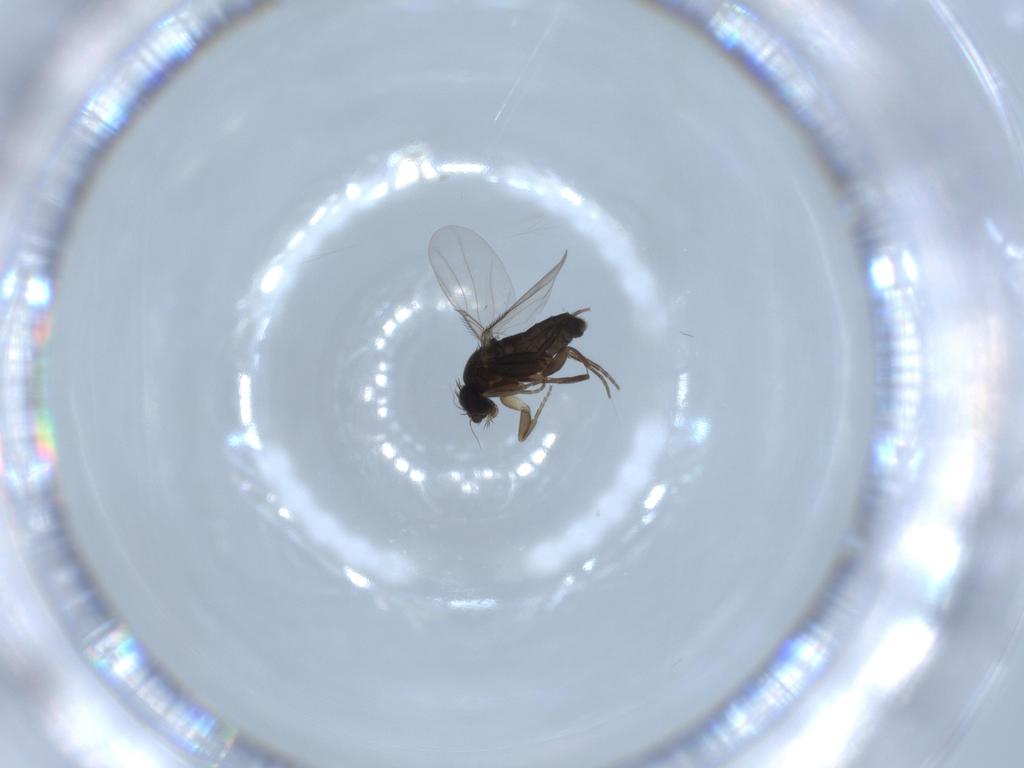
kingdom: Animalia
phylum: Arthropoda
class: Insecta
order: Diptera
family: Phoridae
